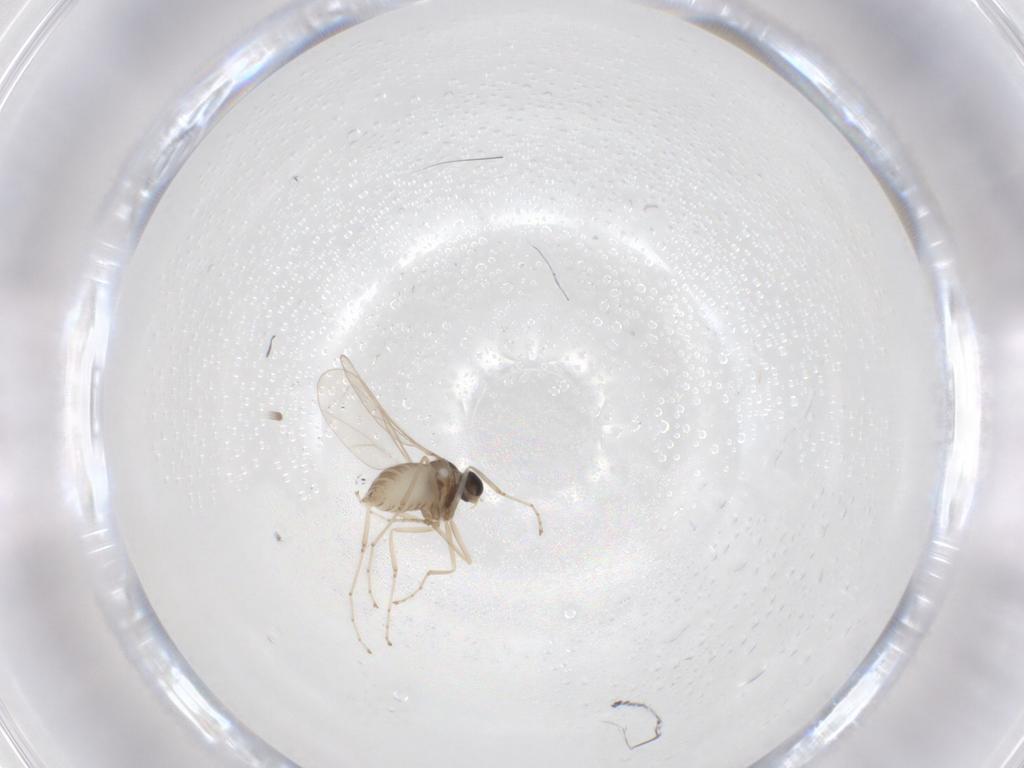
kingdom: Animalia
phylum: Arthropoda
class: Insecta
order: Diptera
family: Cecidomyiidae
